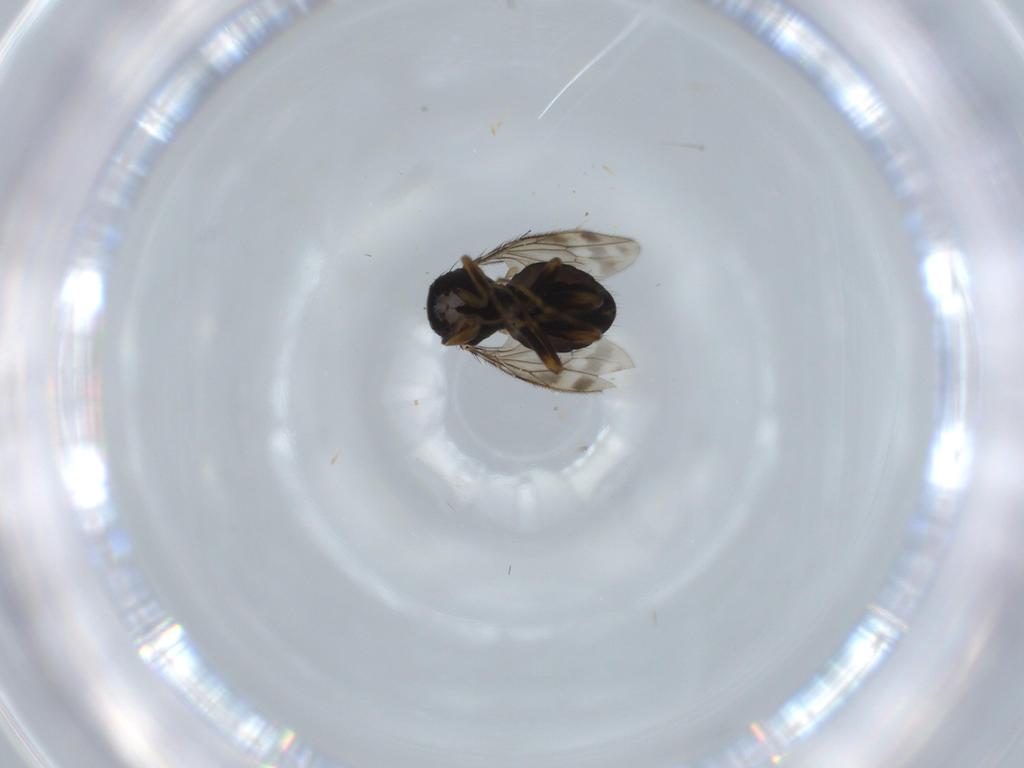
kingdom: Animalia
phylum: Arthropoda
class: Insecta
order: Diptera
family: Sphaeroceridae
